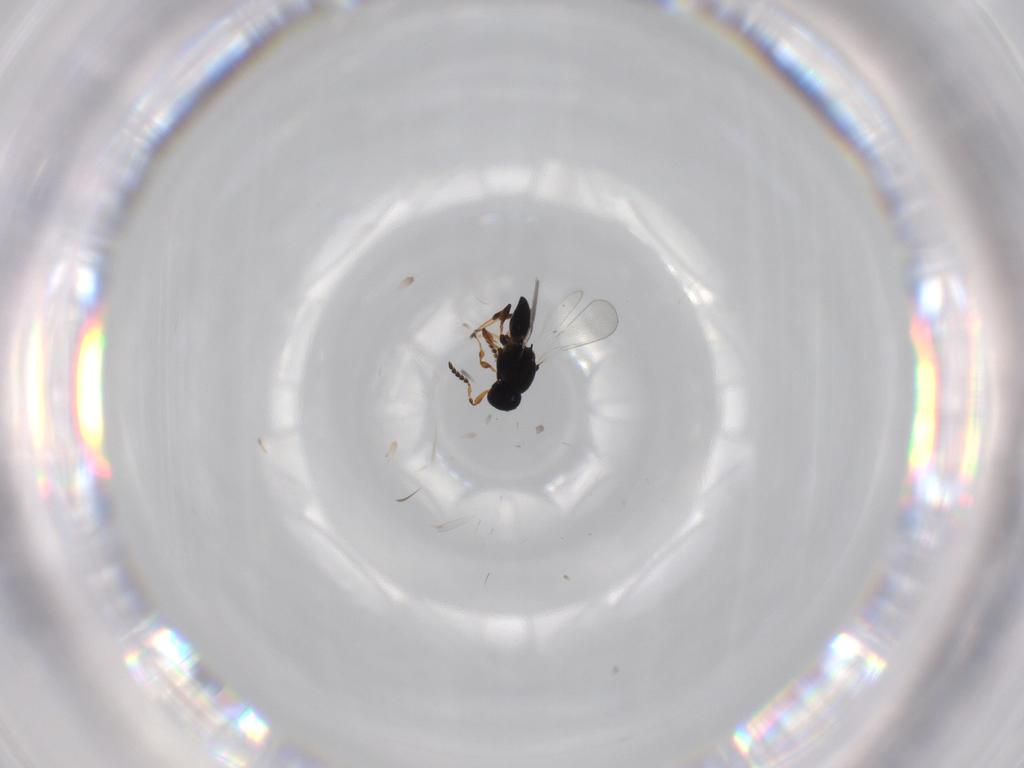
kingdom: Animalia
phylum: Arthropoda
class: Insecta
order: Hymenoptera
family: Platygastridae
